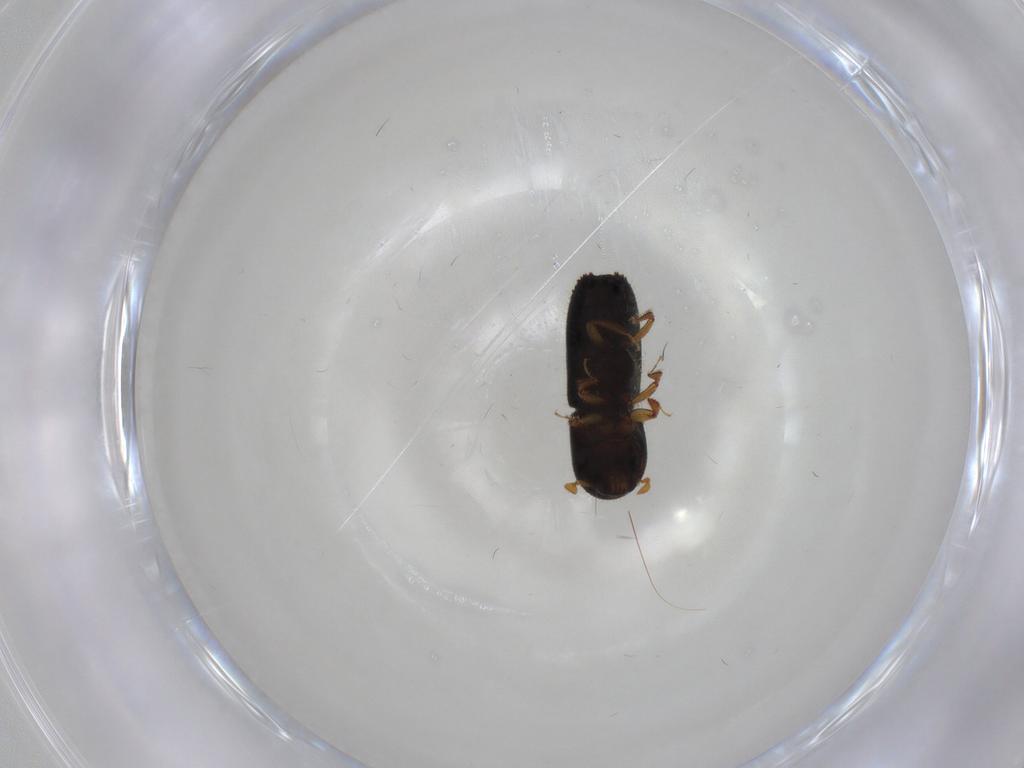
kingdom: Animalia
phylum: Arthropoda
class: Insecta
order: Coleoptera
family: Curculionidae
